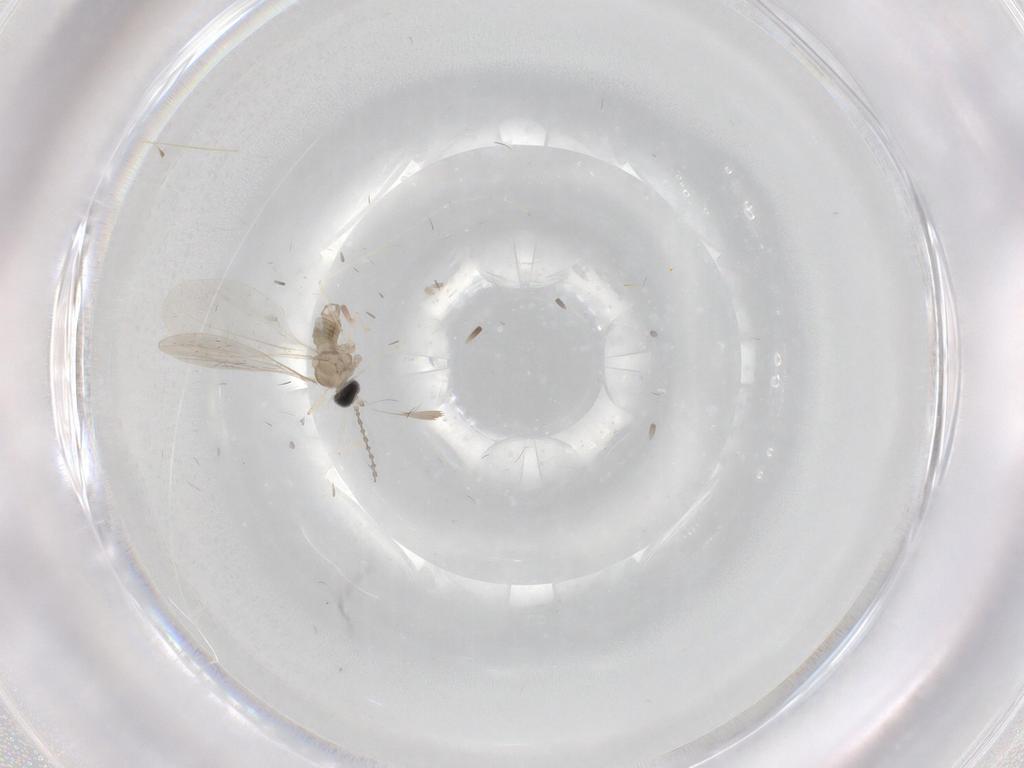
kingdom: Animalia
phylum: Arthropoda
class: Insecta
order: Diptera
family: Cecidomyiidae
